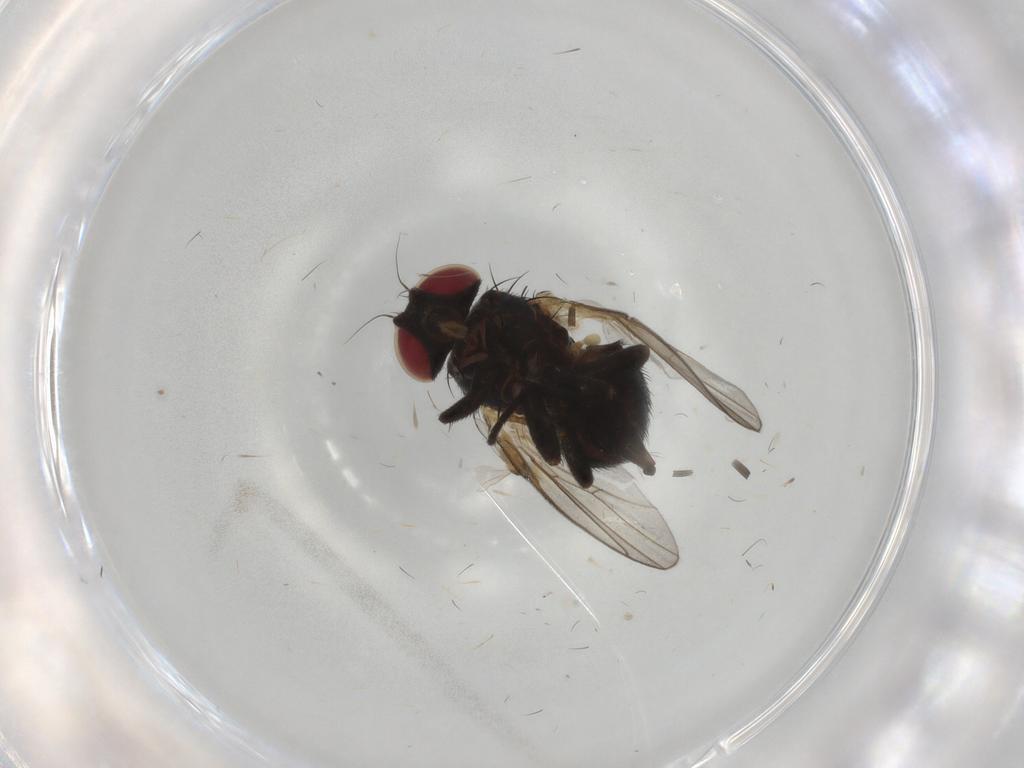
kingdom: Animalia
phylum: Arthropoda
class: Insecta
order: Diptera
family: Cecidomyiidae
